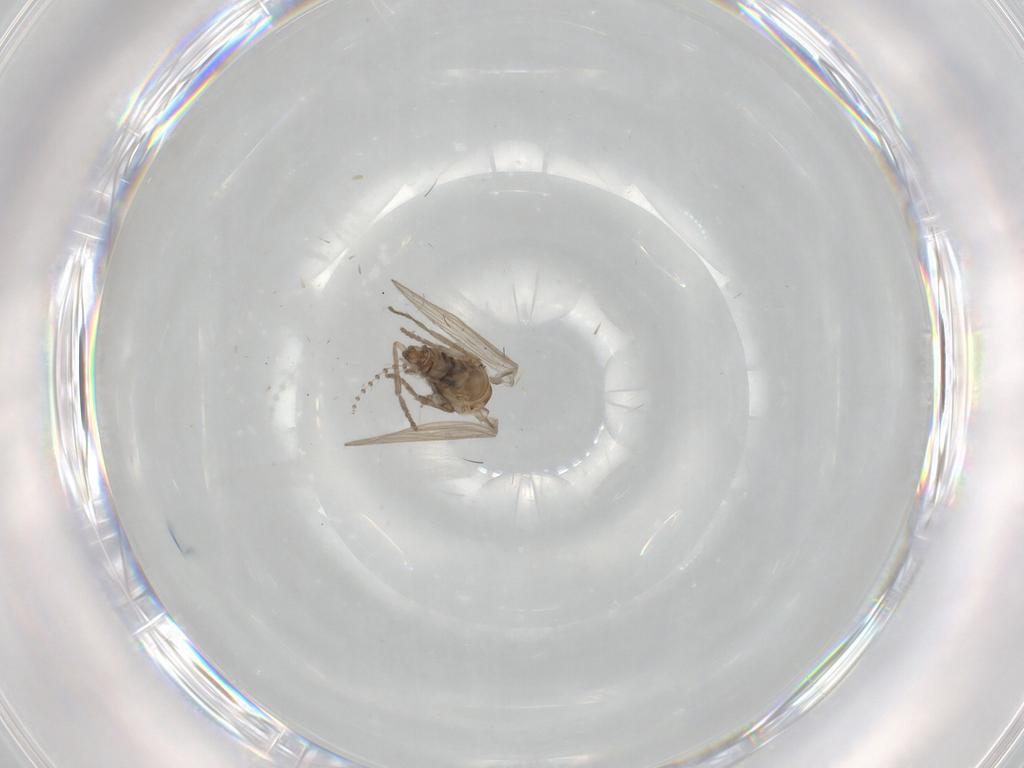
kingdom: Animalia
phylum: Arthropoda
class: Insecta
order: Diptera
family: Psychodidae
